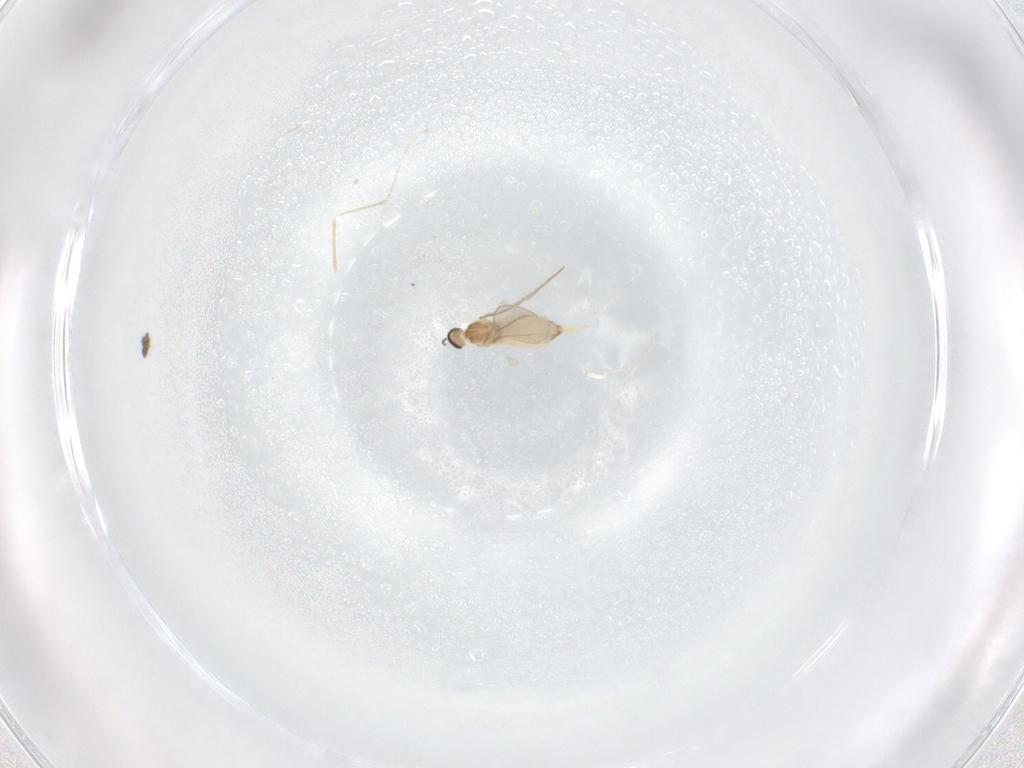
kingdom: Animalia
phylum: Arthropoda
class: Insecta
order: Diptera
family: Cecidomyiidae
